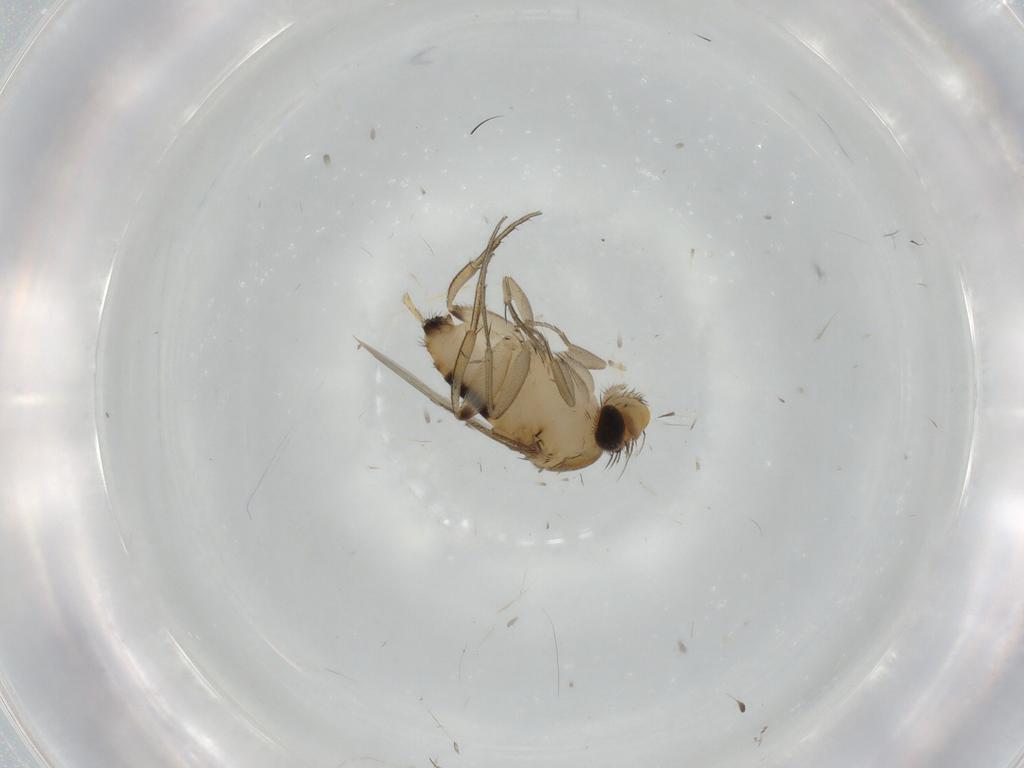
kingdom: Animalia
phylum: Arthropoda
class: Insecta
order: Diptera
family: Phoridae
